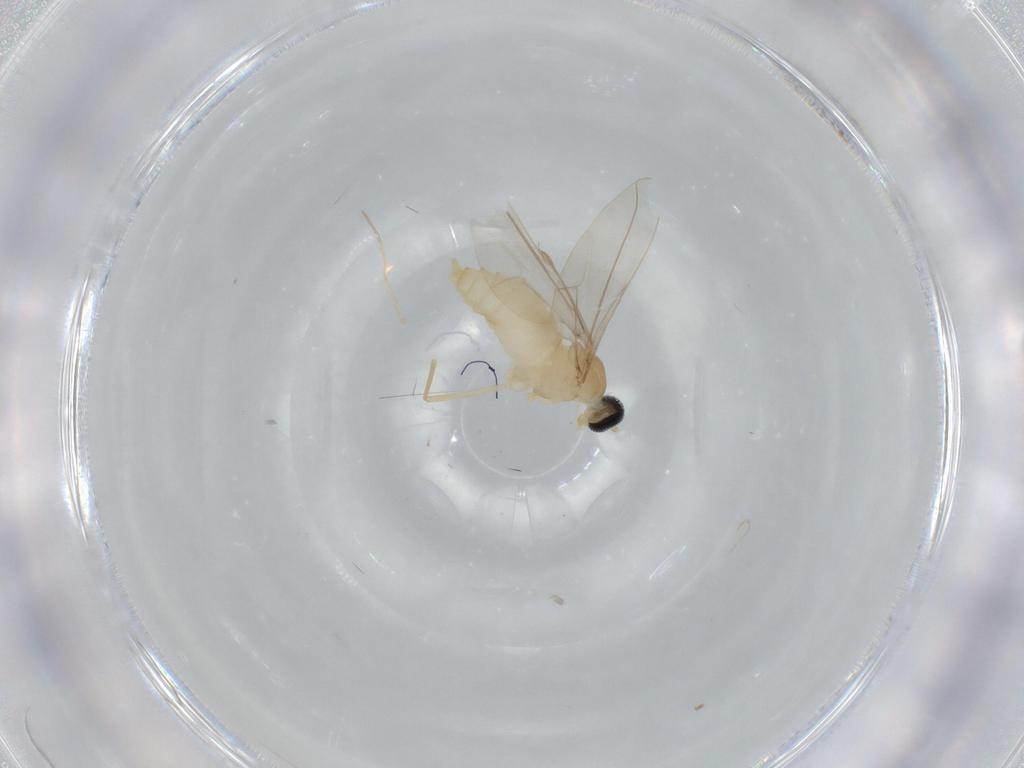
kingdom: Animalia
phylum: Arthropoda
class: Insecta
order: Diptera
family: Cecidomyiidae
